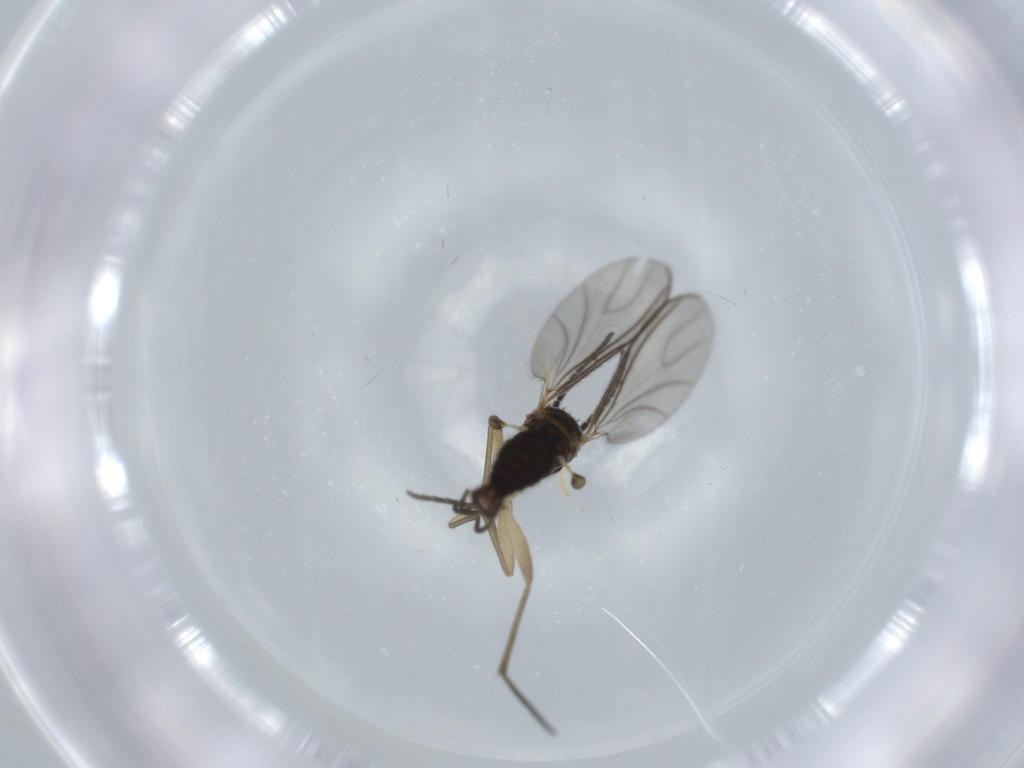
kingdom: Animalia
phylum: Arthropoda
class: Insecta
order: Diptera
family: Sciaridae
